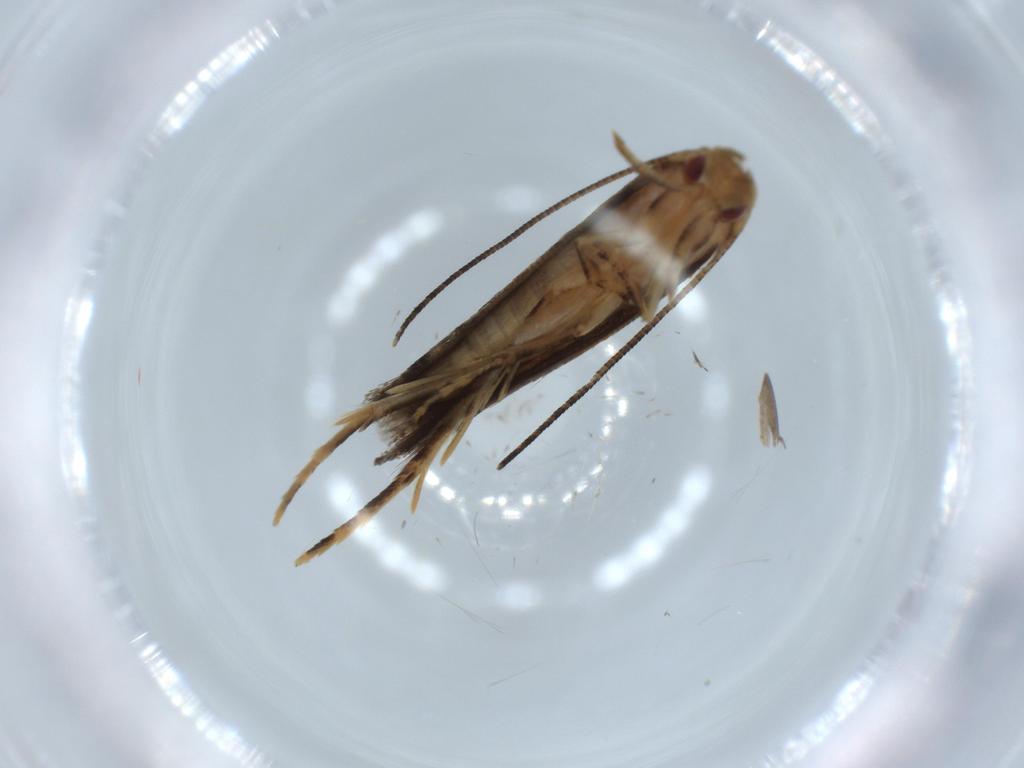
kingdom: Animalia
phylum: Arthropoda
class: Insecta
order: Lepidoptera
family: Tineidae
